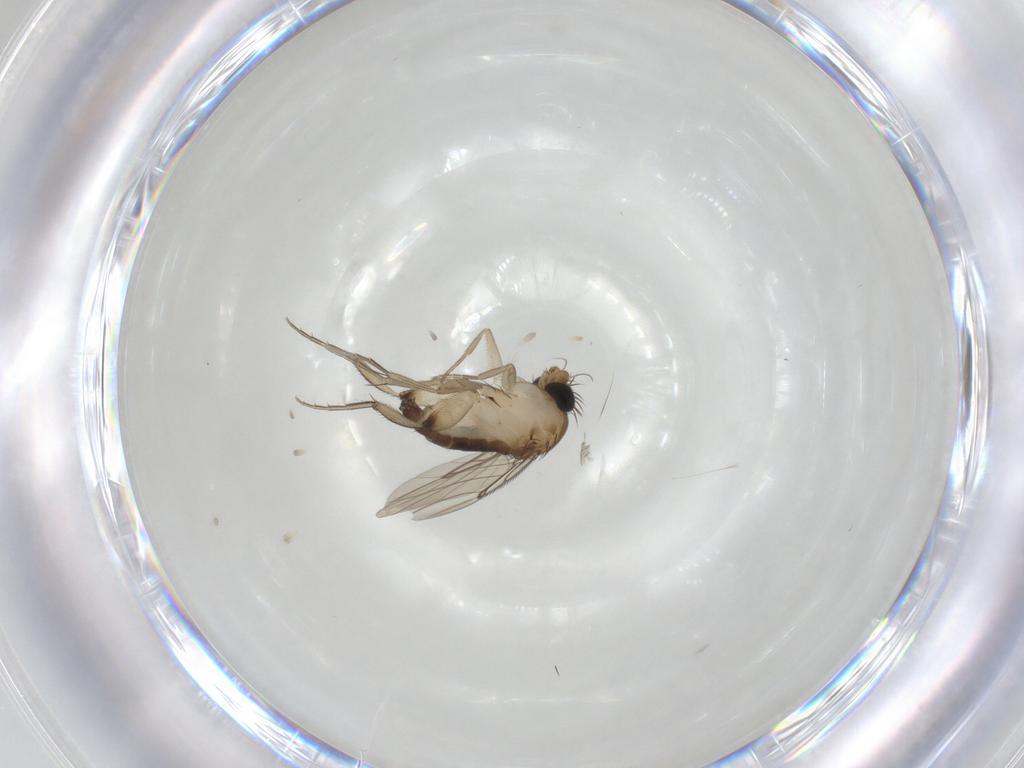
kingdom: Animalia
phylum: Arthropoda
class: Insecta
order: Diptera
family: Phoridae
